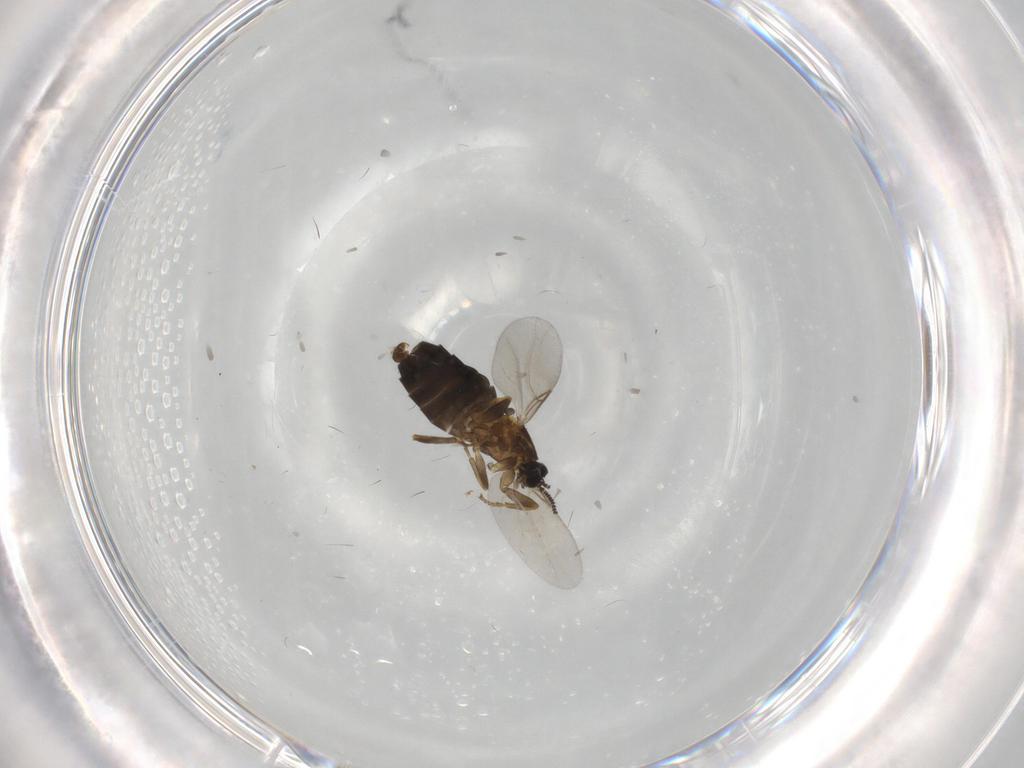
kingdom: Animalia
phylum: Arthropoda
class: Insecta
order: Diptera
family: Scatopsidae
